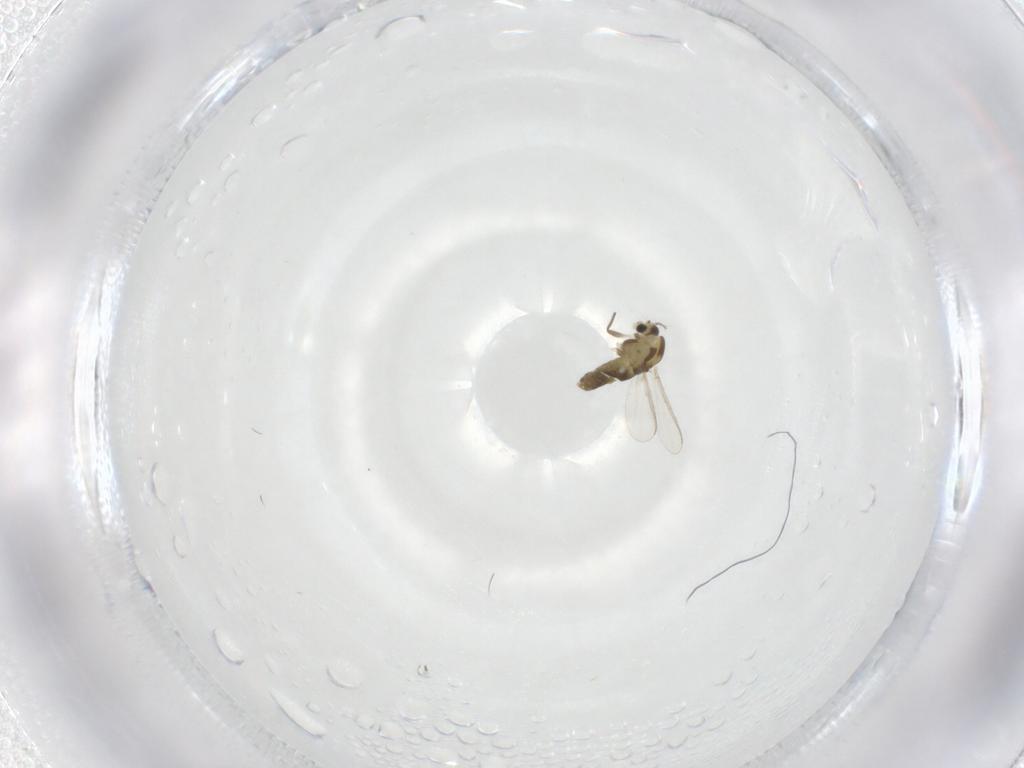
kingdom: Animalia
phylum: Arthropoda
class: Insecta
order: Diptera
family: Chironomidae
